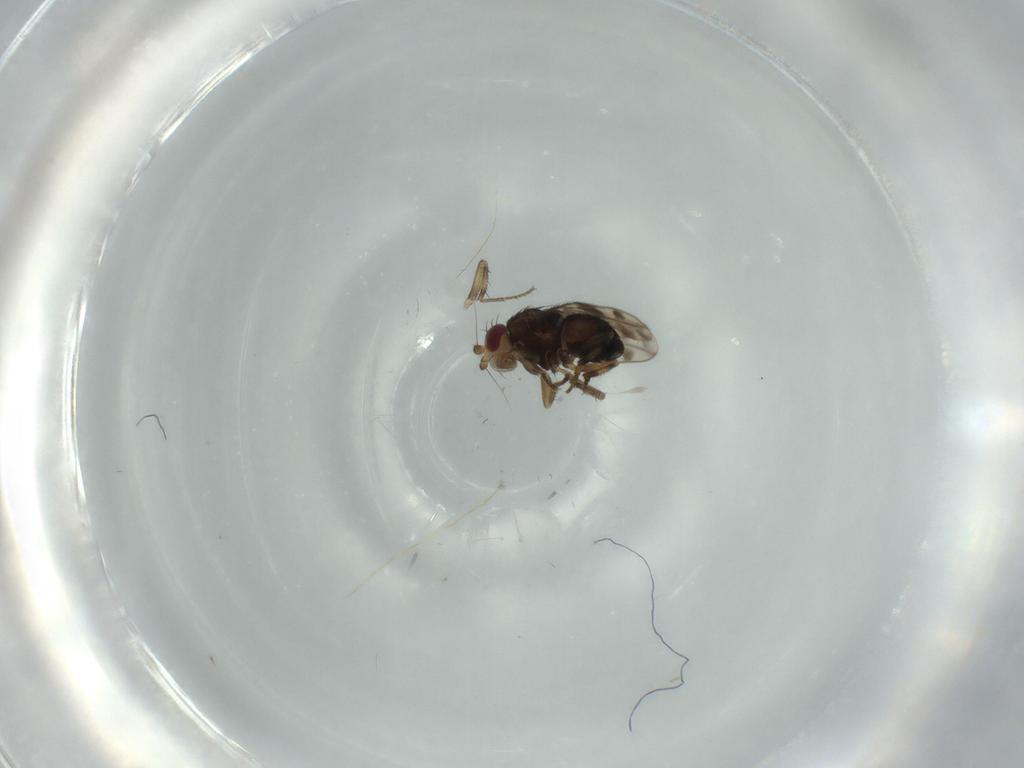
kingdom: Animalia
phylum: Arthropoda
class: Insecta
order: Diptera
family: Sphaeroceridae
